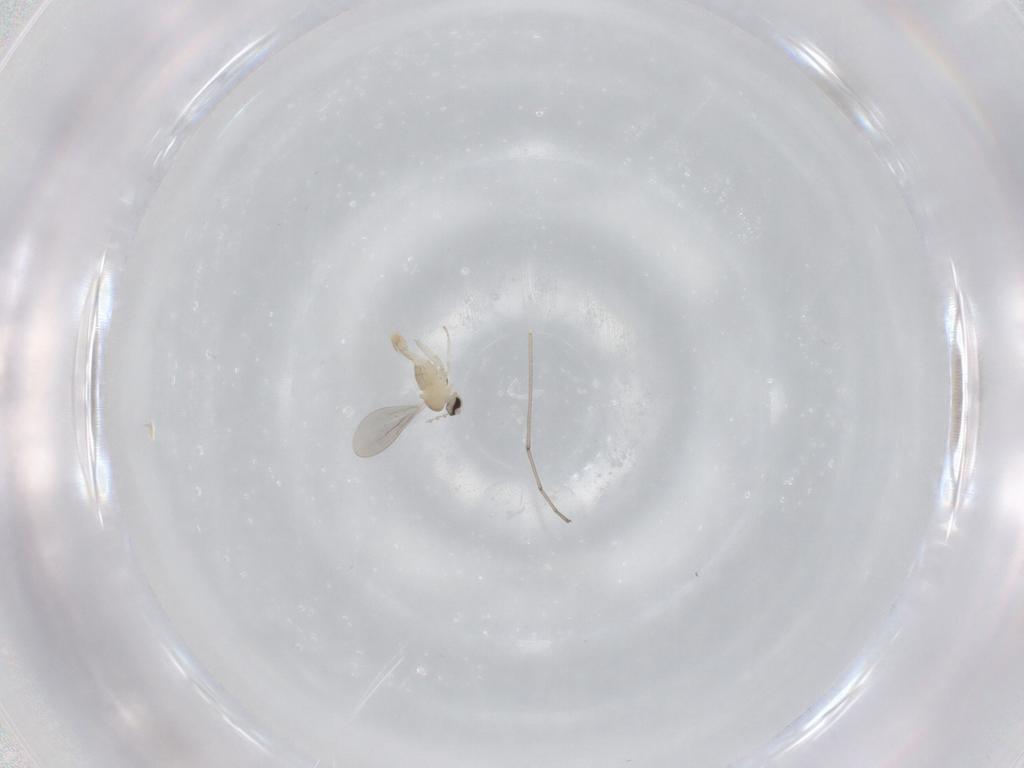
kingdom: Animalia
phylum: Arthropoda
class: Insecta
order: Diptera
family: Cecidomyiidae
